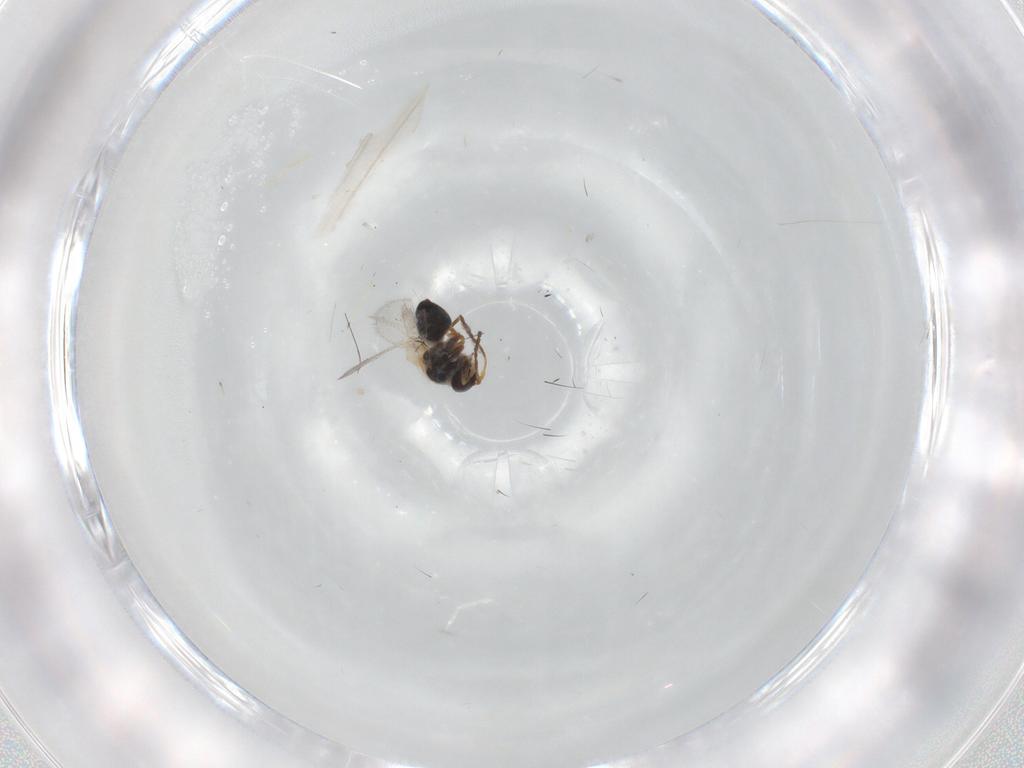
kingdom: Animalia
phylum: Arthropoda
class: Insecta
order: Hymenoptera
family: Figitidae
